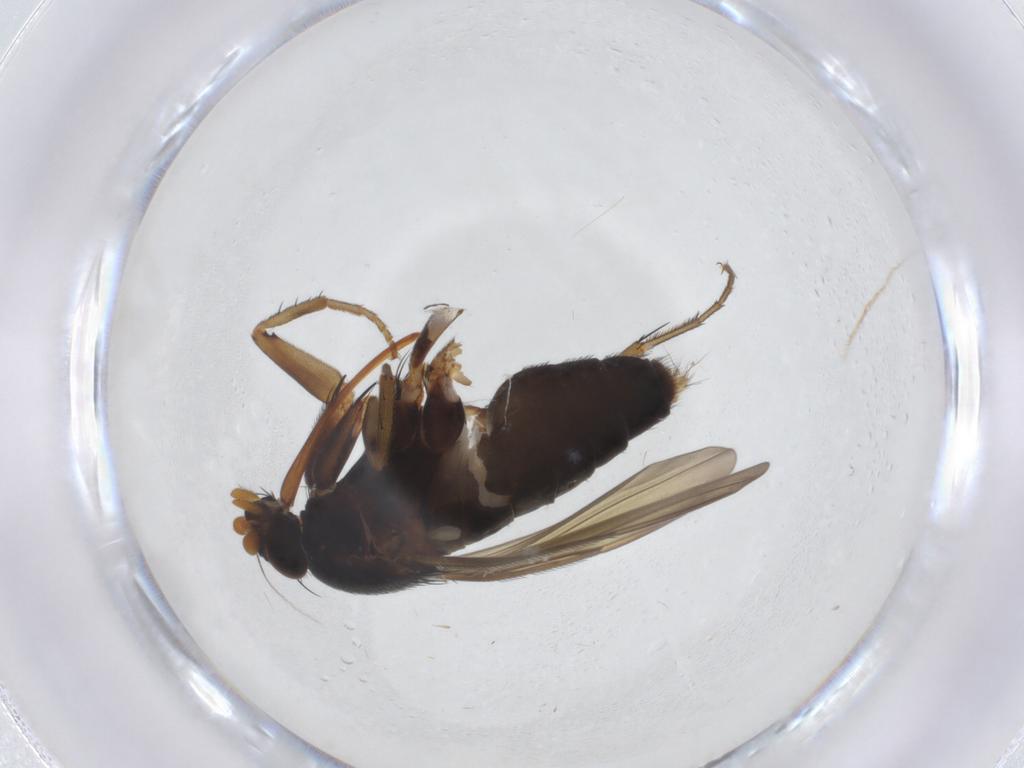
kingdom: Animalia
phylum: Arthropoda
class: Insecta
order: Diptera
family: Phoridae
